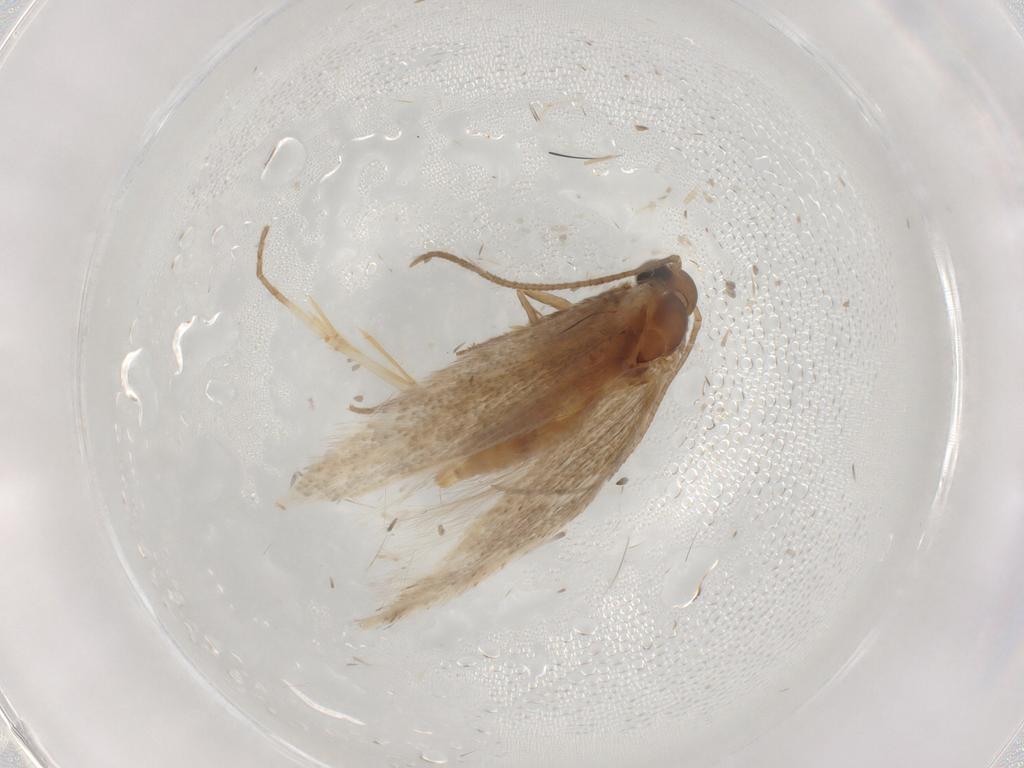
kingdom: Animalia
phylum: Arthropoda
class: Insecta
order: Lepidoptera
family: Elachistidae
